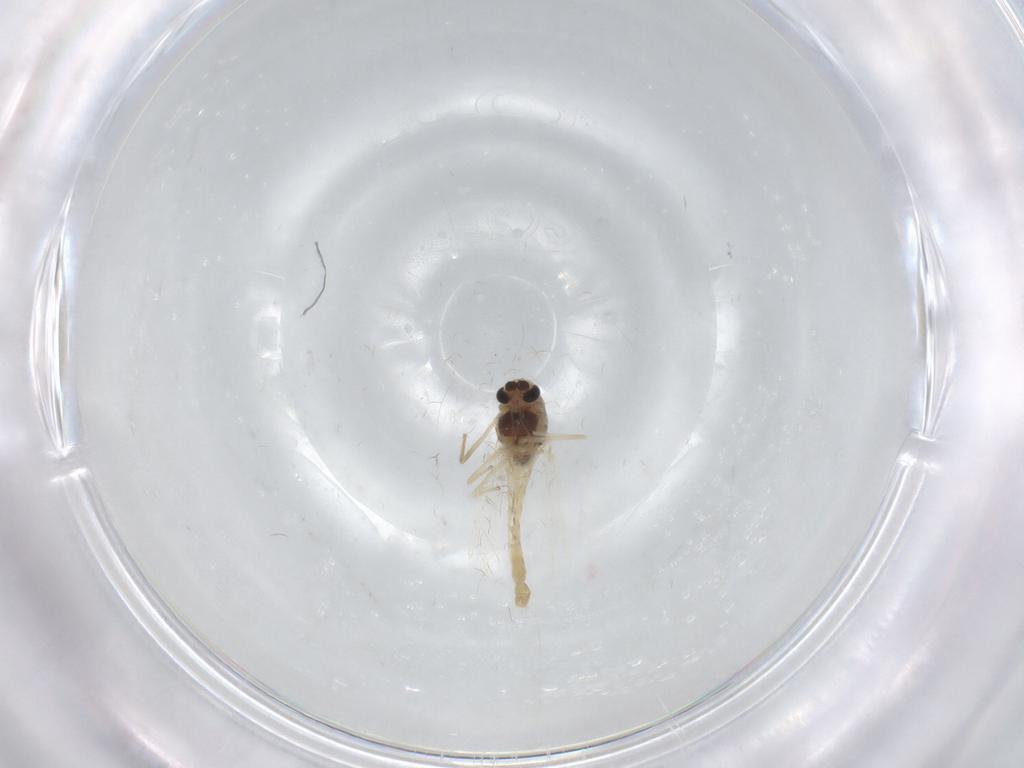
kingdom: Animalia
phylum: Arthropoda
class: Insecta
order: Diptera
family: Chironomidae
